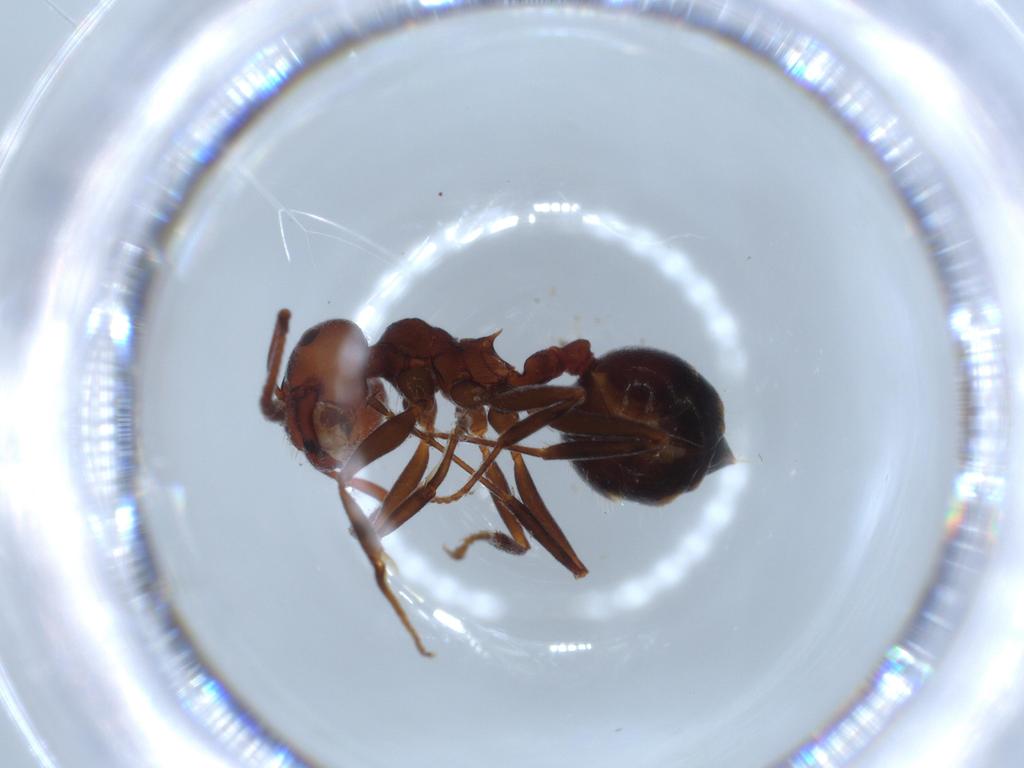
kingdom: Animalia
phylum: Arthropoda
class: Insecta
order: Hymenoptera
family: Formicidae
